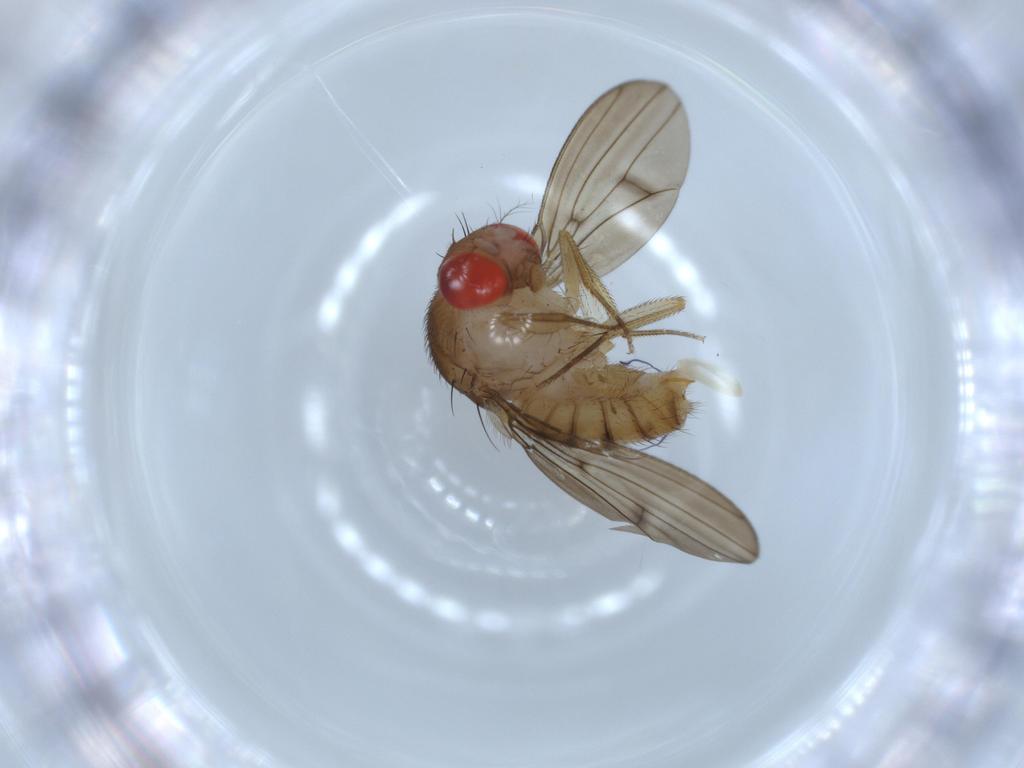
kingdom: Animalia
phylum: Arthropoda
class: Insecta
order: Diptera
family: Drosophilidae
